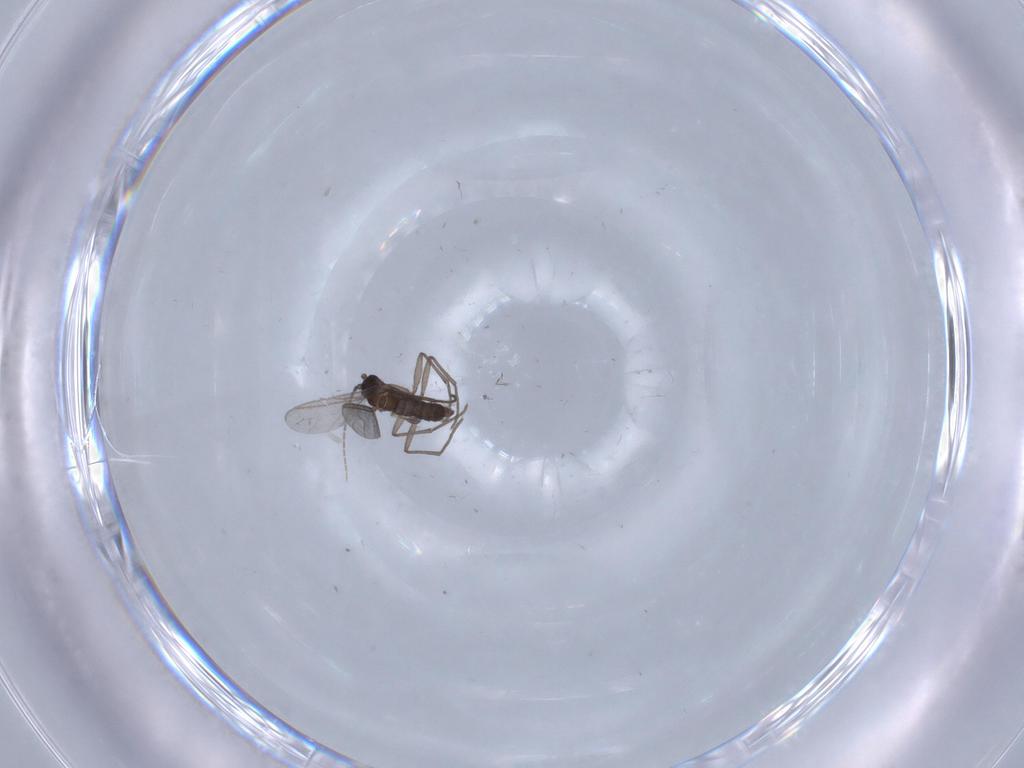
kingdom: Animalia
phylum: Arthropoda
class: Insecta
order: Diptera
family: Sciaridae
